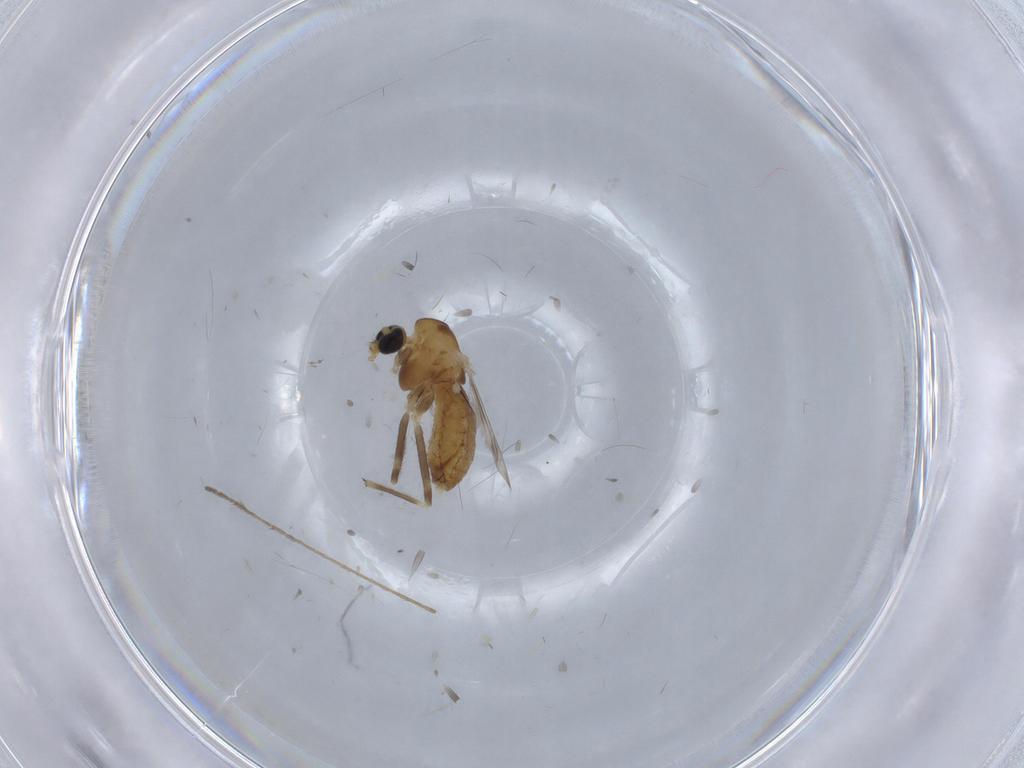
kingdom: Animalia
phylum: Arthropoda
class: Insecta
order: Diptera
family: Chironomidae
